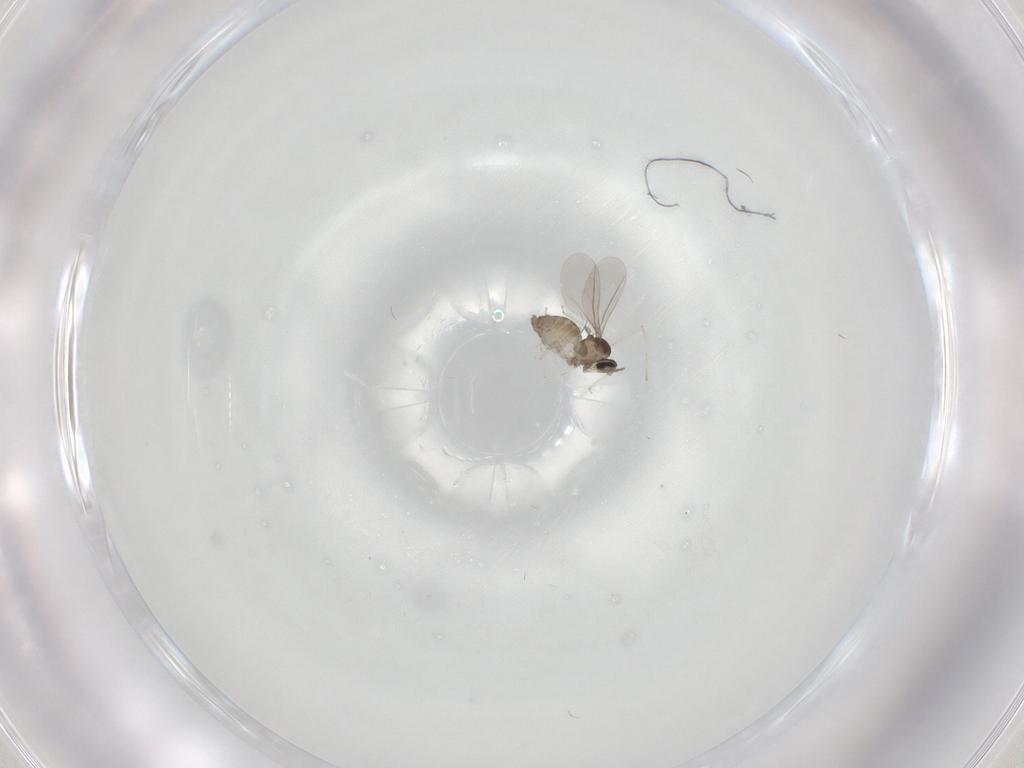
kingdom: Animalia
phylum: Arthropoda
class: Insecta
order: Diptera
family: Cecidomyiidae
